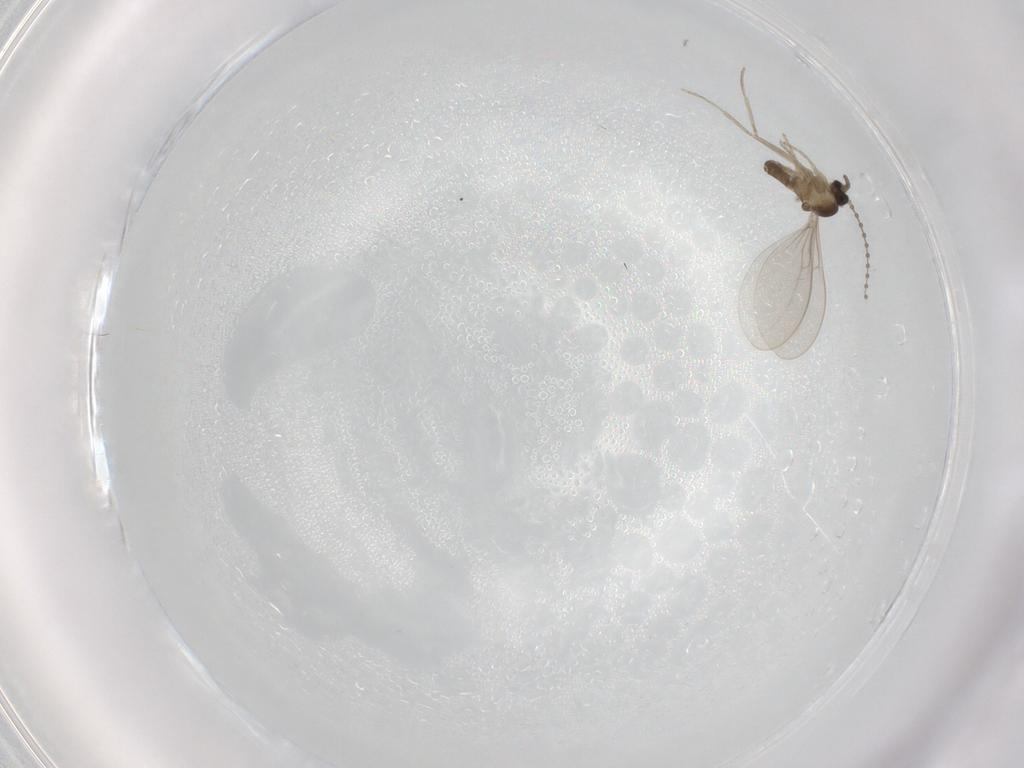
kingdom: Animalia
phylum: Arthropoda
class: Insecta
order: Diptera
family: Cecidomyiidae
